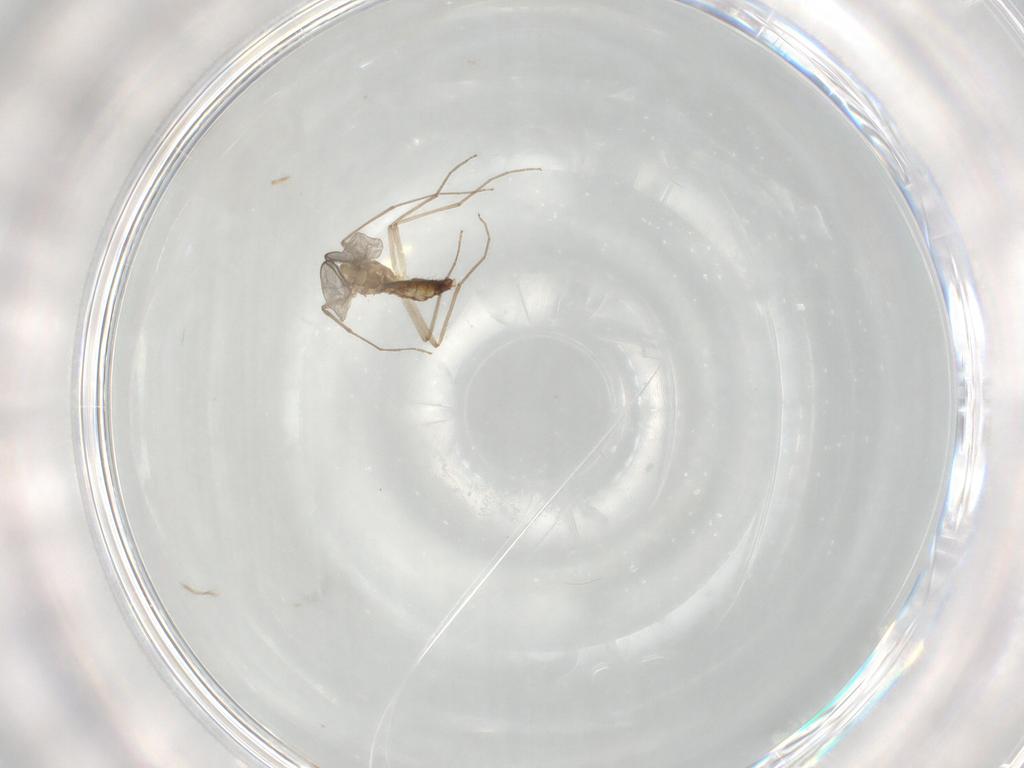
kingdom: Animalia
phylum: Arthropoda
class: Insecta
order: Diptera
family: Chironomidae
